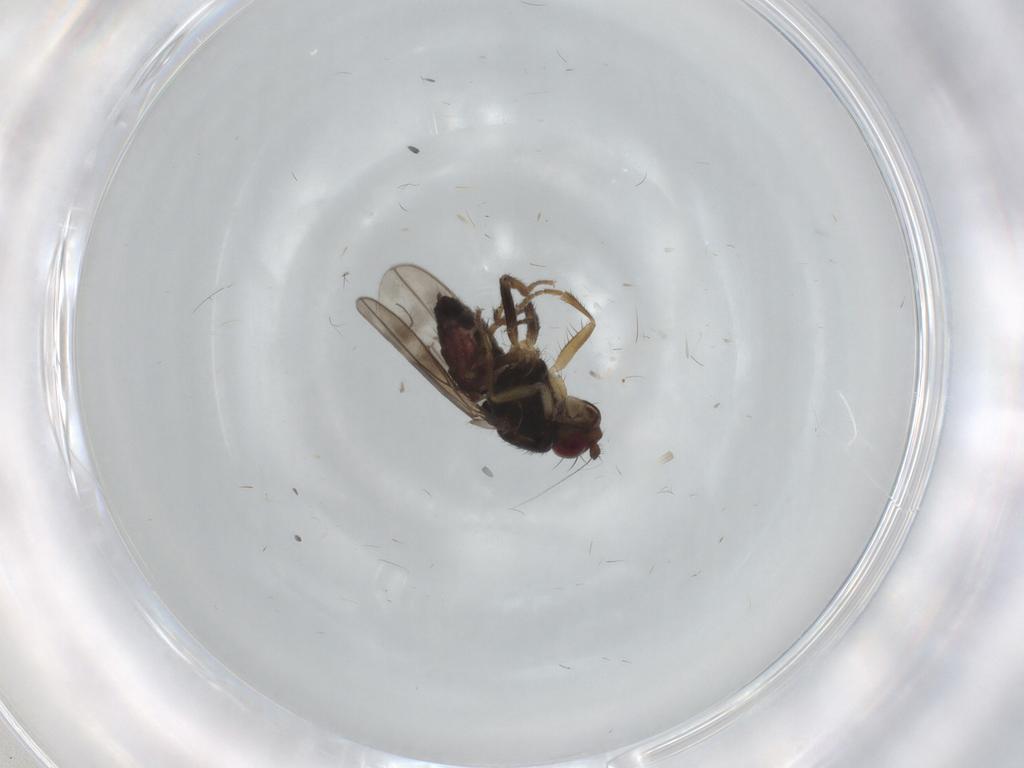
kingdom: Animalia
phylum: Arthropoda
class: Insecta
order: Diptera
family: Sphaeroceridae
